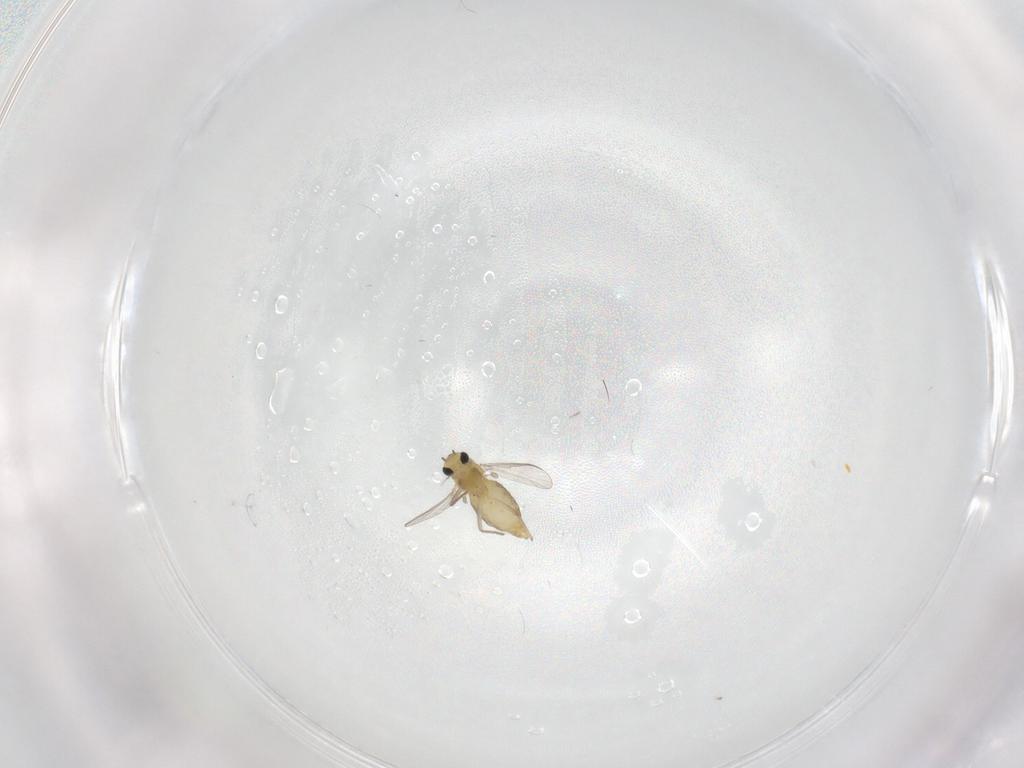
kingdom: Animalia
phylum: Arthropoda
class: Insecta
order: Diptera
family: Chironomidae
